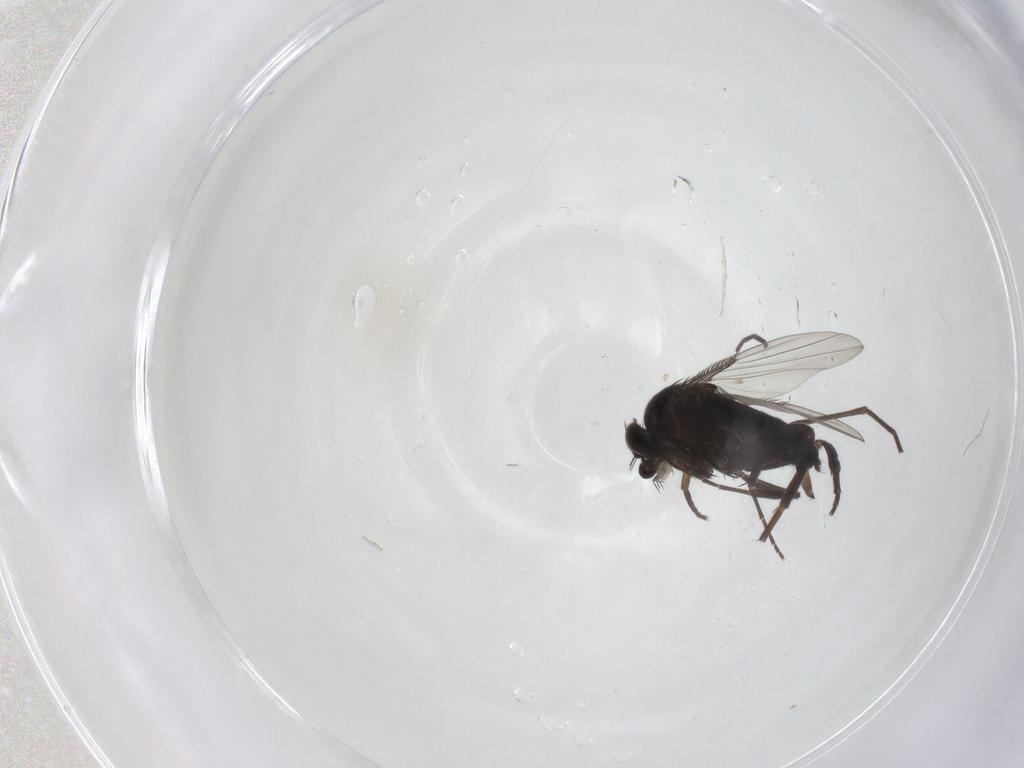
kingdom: Animalia
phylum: Arthropoda
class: Insecta
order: Diptera
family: Sciaridae
